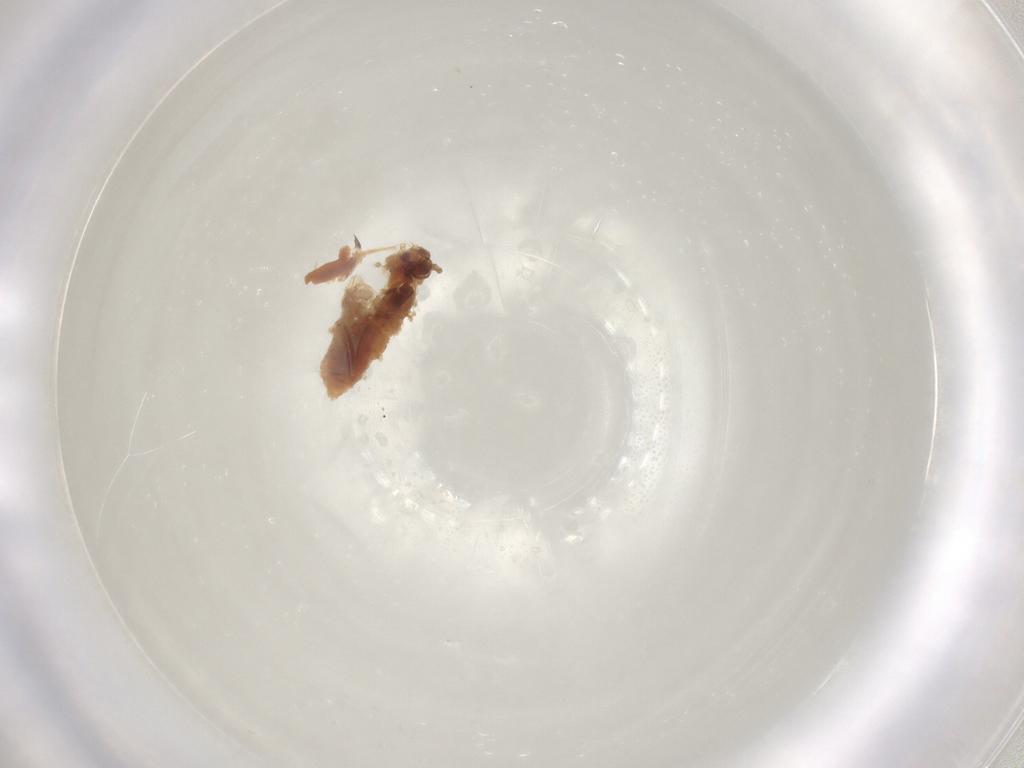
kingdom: Animalia
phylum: Arthropoda
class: Insecta
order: Hemiptera
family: Aphididae
